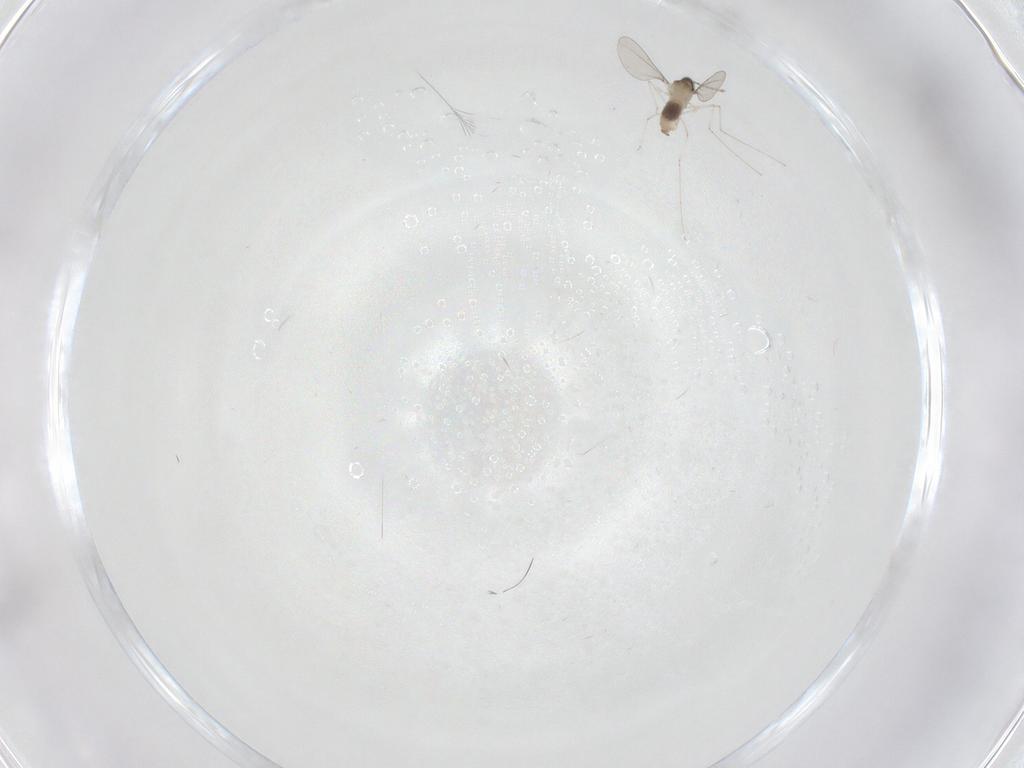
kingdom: Animalia
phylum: Arthropoda
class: Insecta
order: Diptera
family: Cecidomyiidae
